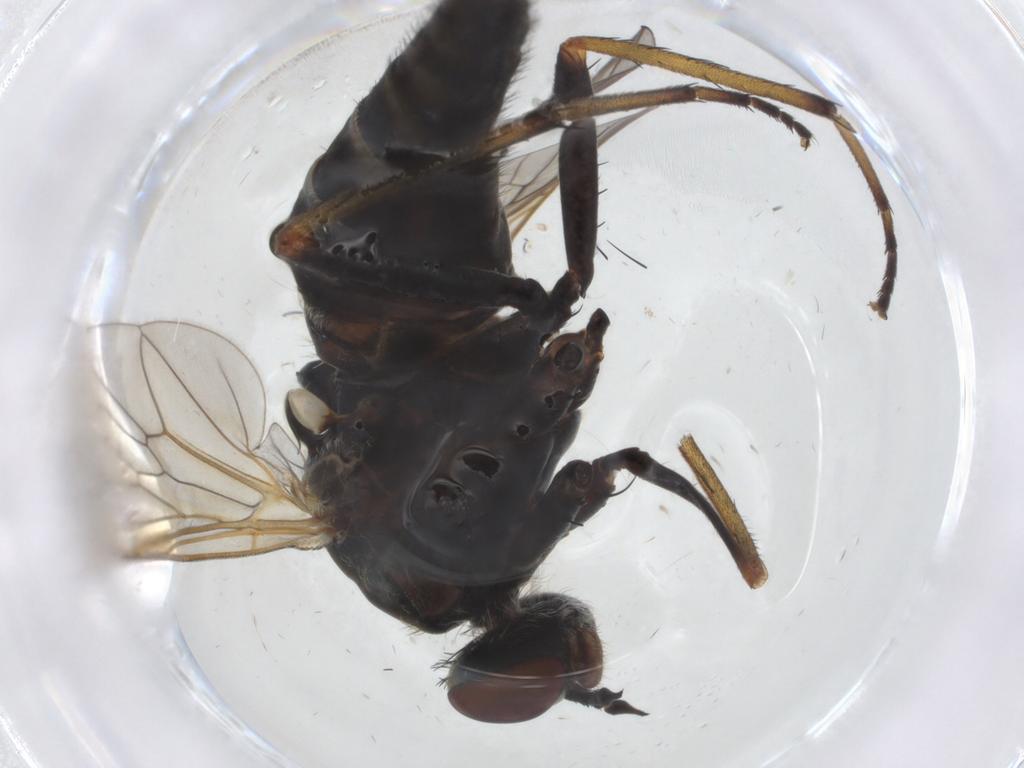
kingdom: Animalia
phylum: Arthropoda
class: Insecta
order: Diptera
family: Therevidae
